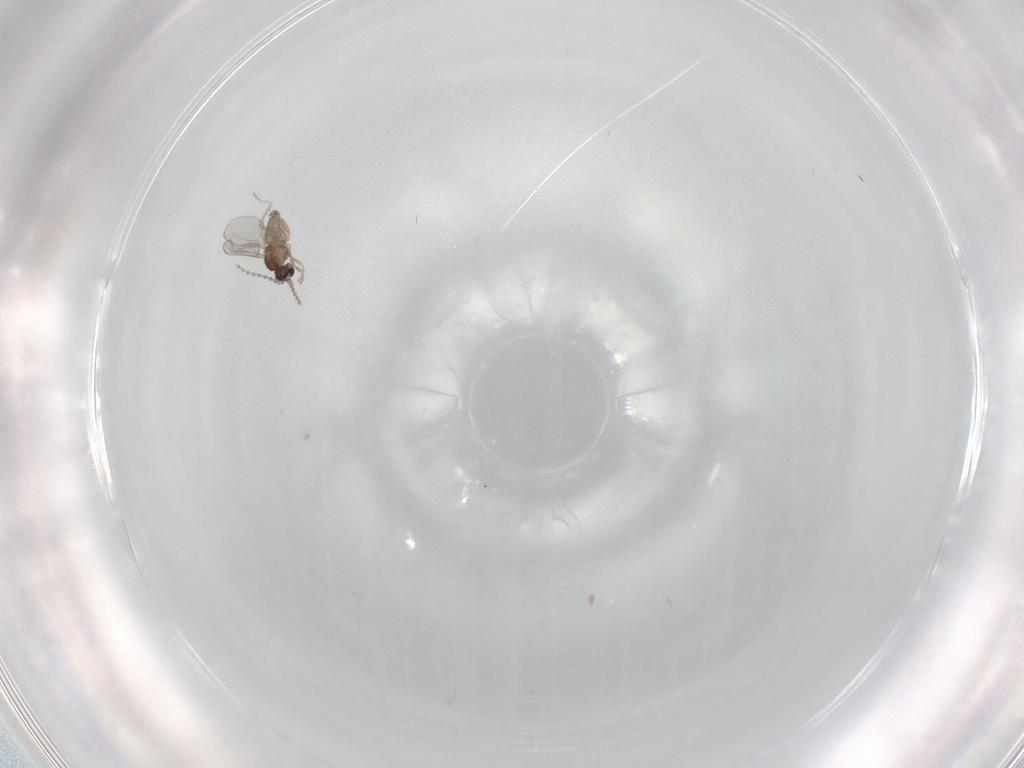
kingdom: Animalia
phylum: Arthropoda
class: Insecta
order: Diptera
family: Cecidomyiidae
